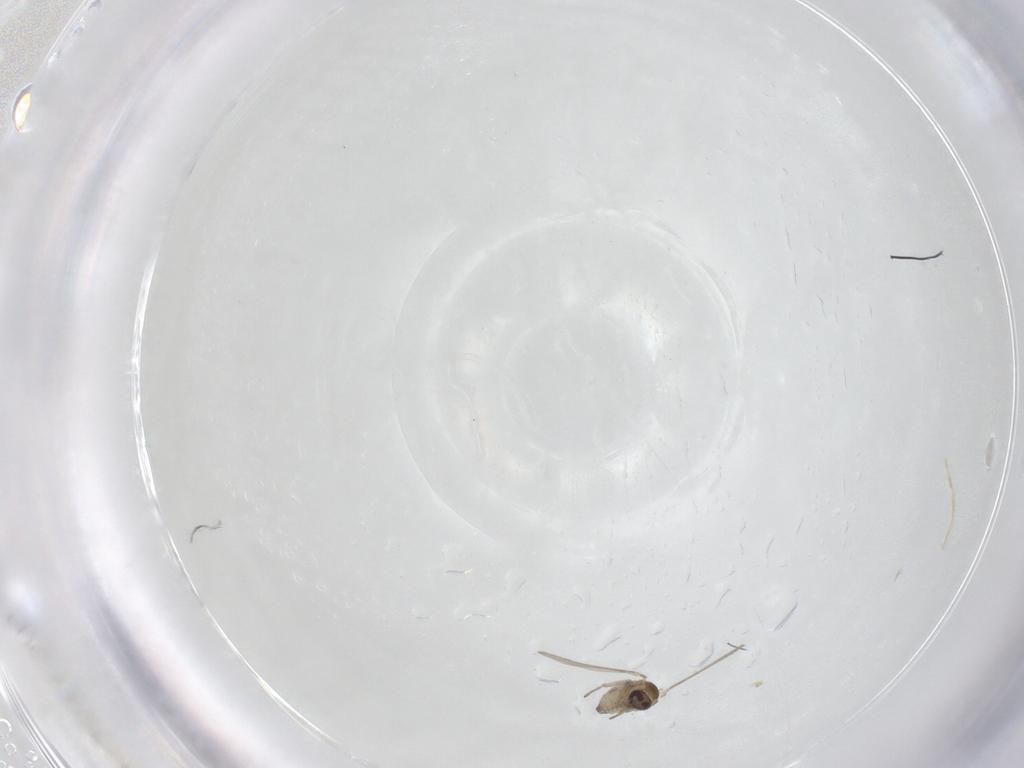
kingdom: Animalia
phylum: Arthropoda
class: Insecta
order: Diptera
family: Psychodidae
